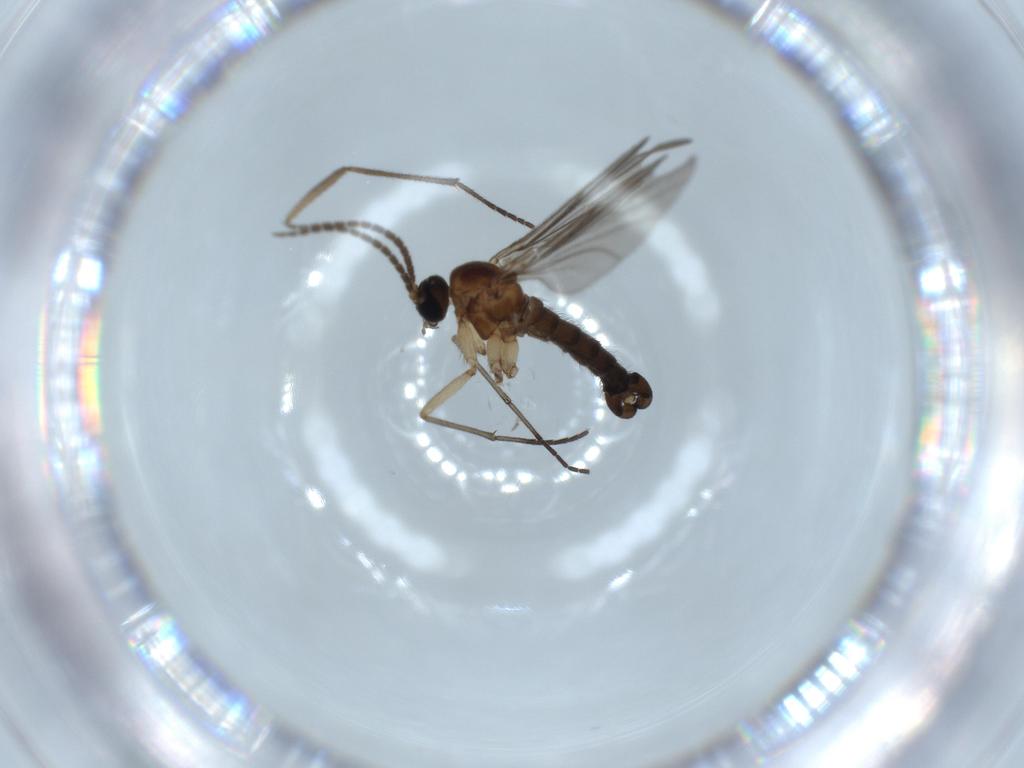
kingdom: Animalia
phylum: Arthropoda
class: Insecta
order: Diptera
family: Sciaridae
